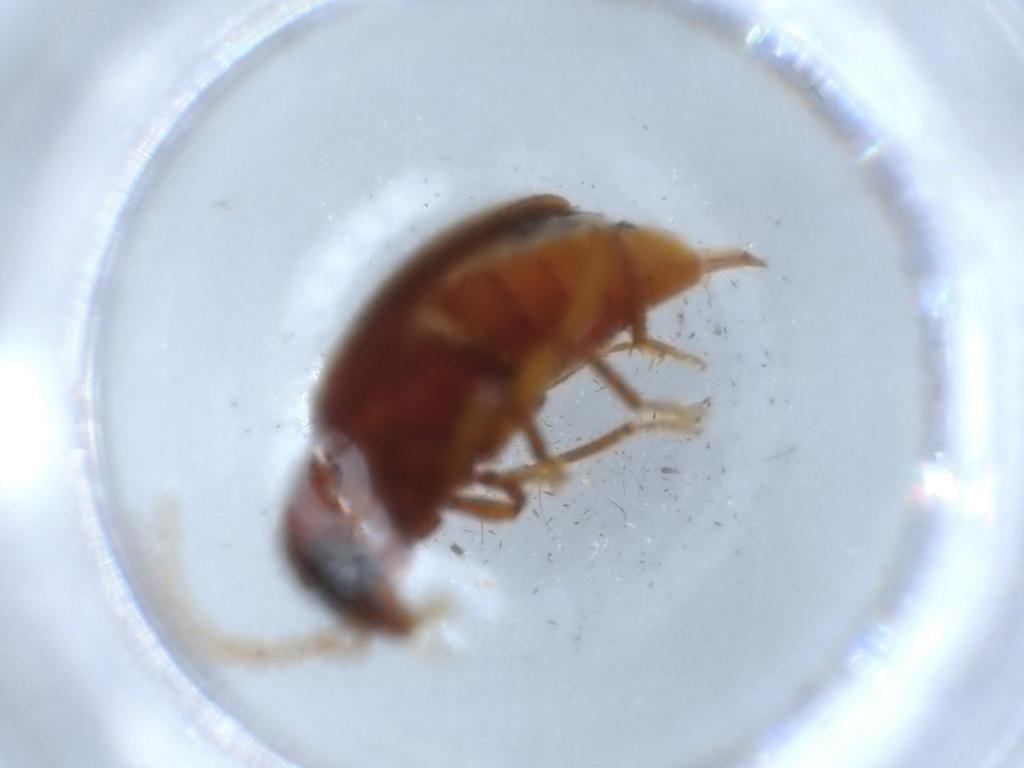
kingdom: Animalia
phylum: Arthropoda
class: Insecta
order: Coleoptera
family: Ptilodactylidae
